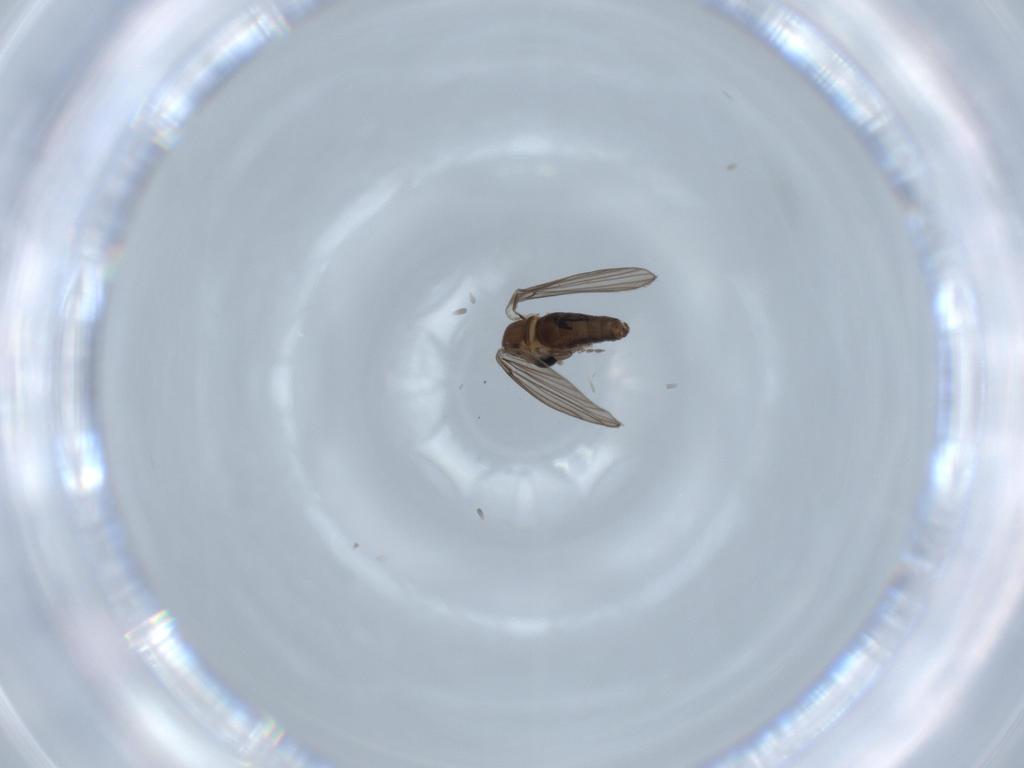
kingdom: Animalia
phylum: Arthropoda
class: Insecta
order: Diptera
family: Psychodidae
